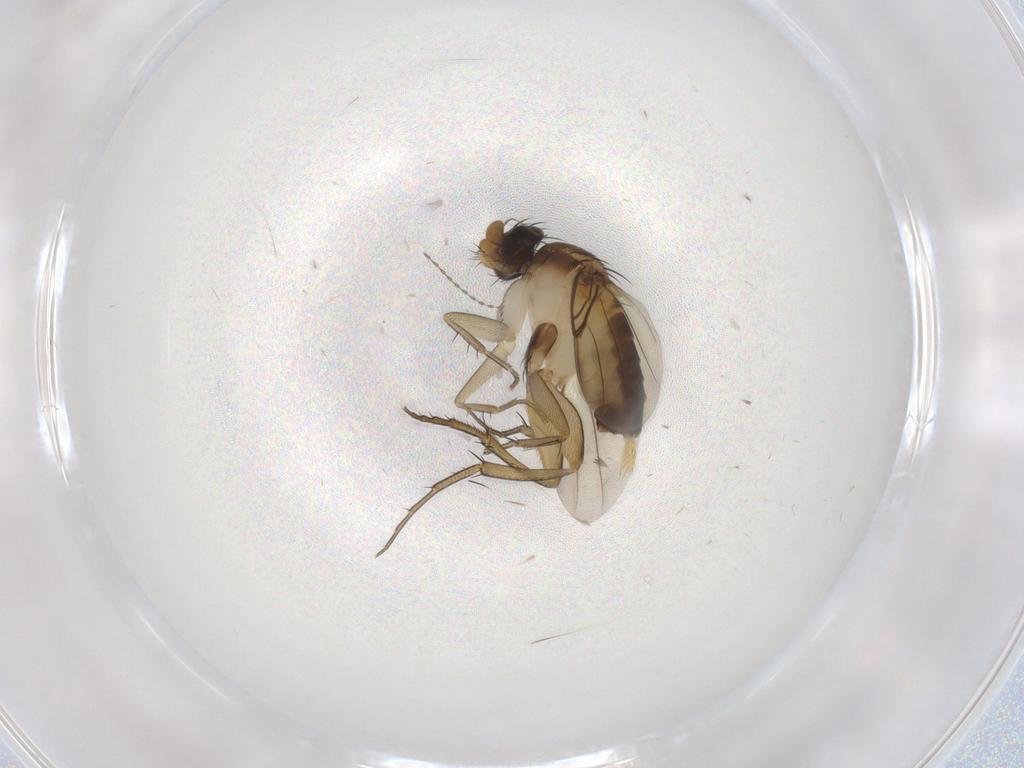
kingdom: Animalia
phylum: Arthropoda
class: Insecta
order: Diptera
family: Phoridae
